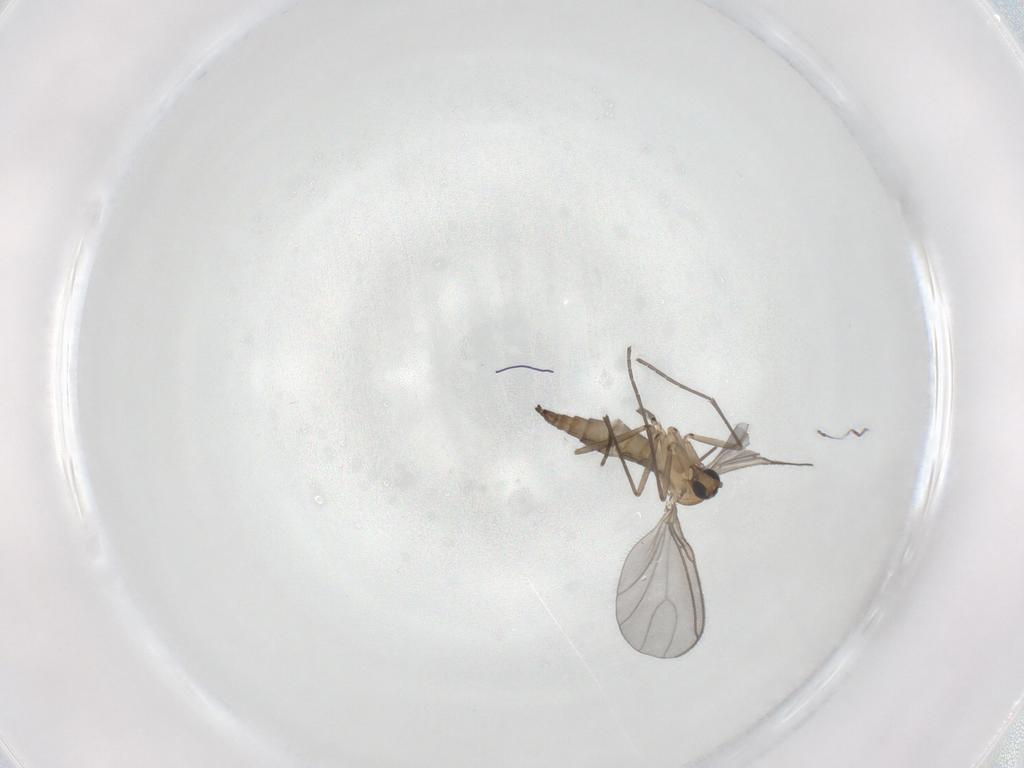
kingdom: Animalia
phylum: Arthropoda
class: Insecta
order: Diptera
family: Sciaridae
